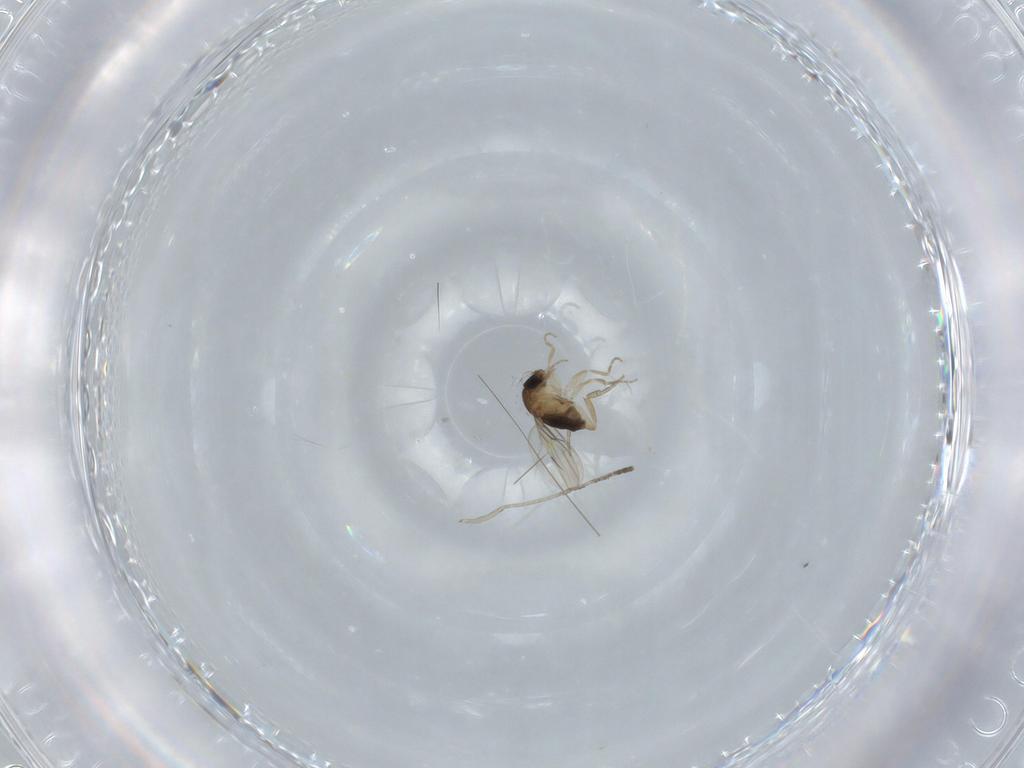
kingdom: Animalia
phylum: Arthropoda
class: Insecta
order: Diptera
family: Phoridae
